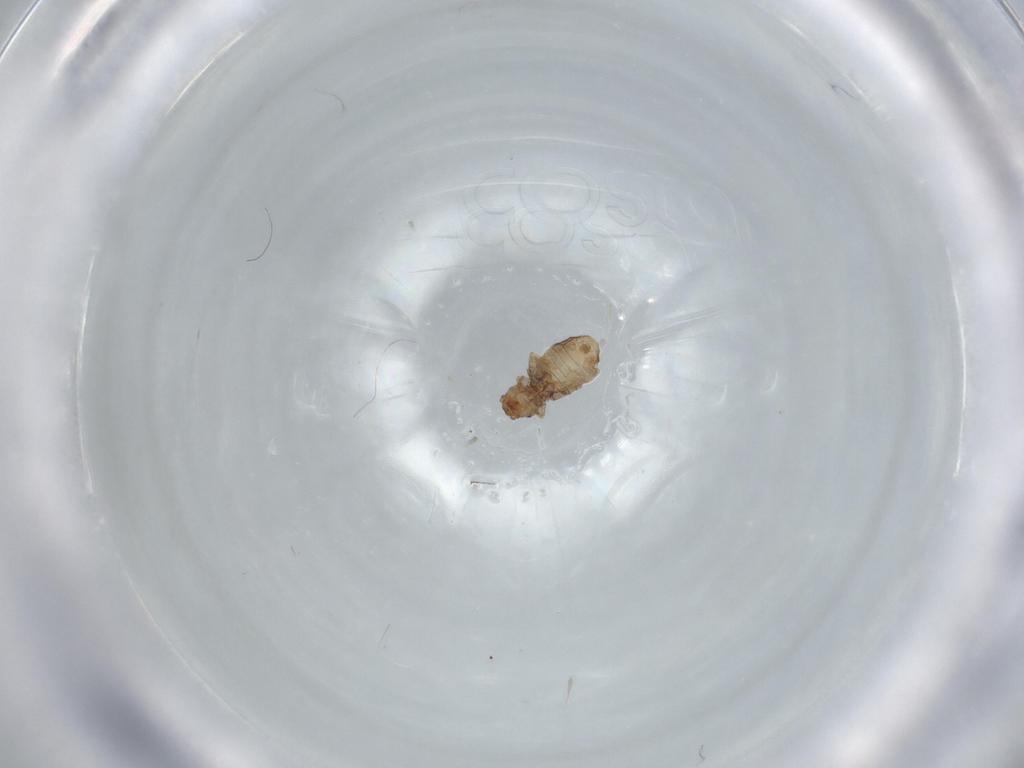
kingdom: Animalia
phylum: Arthropoda
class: Insecta
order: Psocodea
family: Liposcelididae
